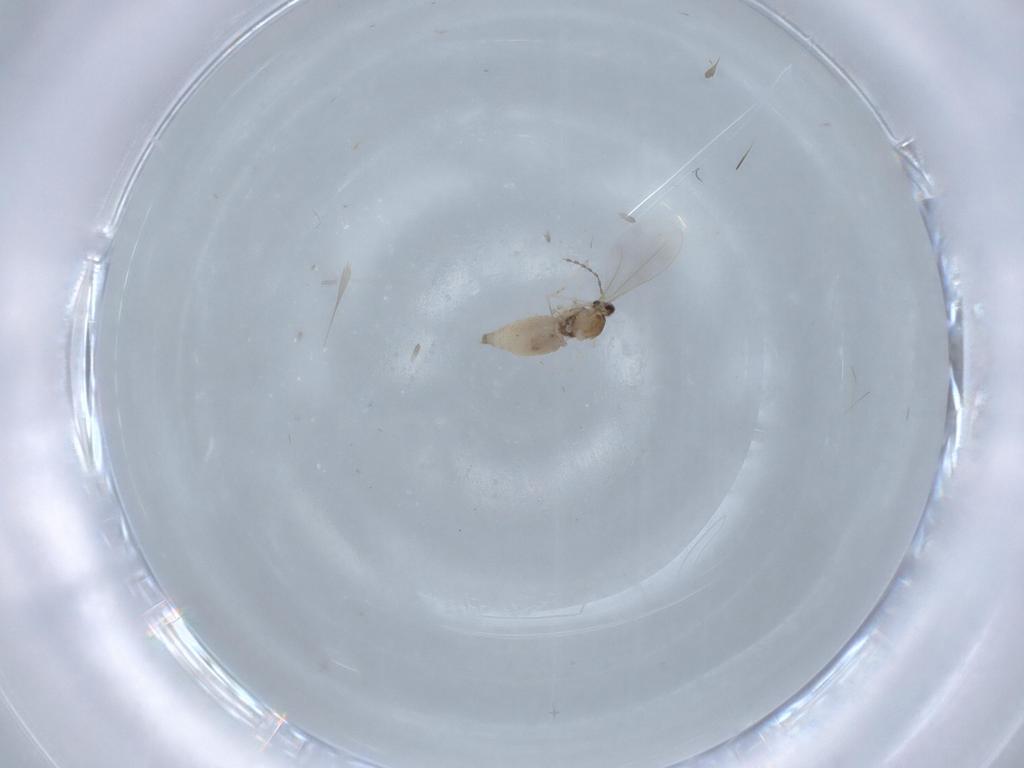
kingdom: Animalia
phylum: Arthropoda
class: Insecta
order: Diptera
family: Cecidomyiidae
